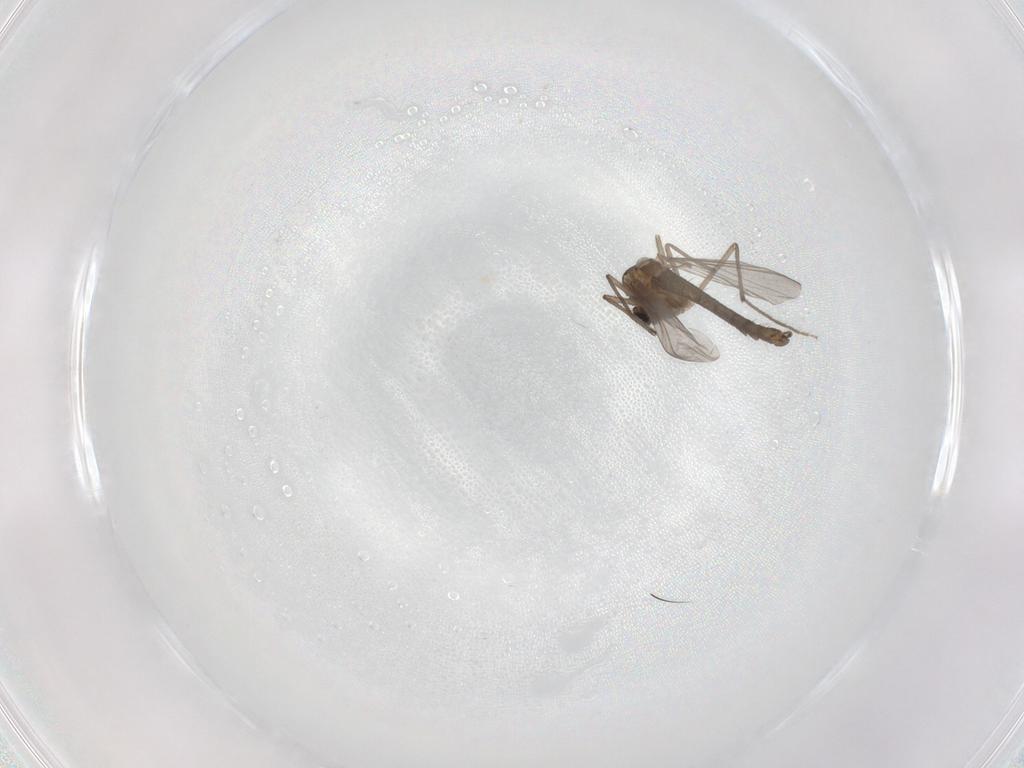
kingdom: Animalia
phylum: Arthropoda
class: Insecta
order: Diptera
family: Chironomidae
